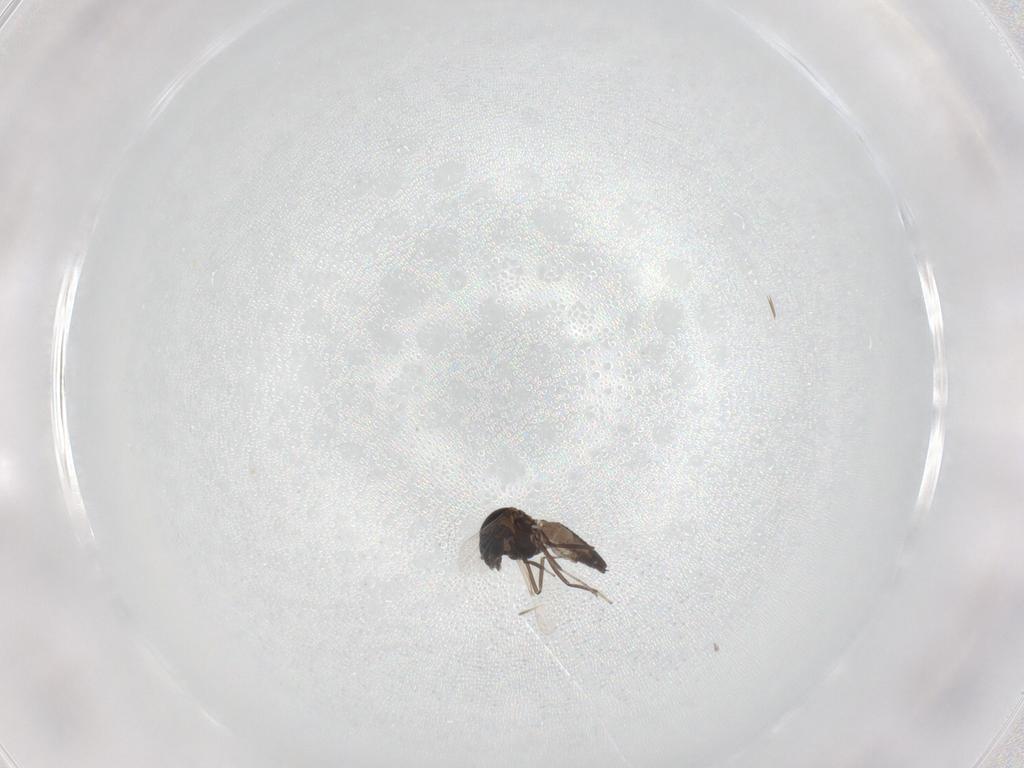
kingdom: Animalia
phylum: Arthropoda
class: Insecta
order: Diptera
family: Ceratopogonidae
